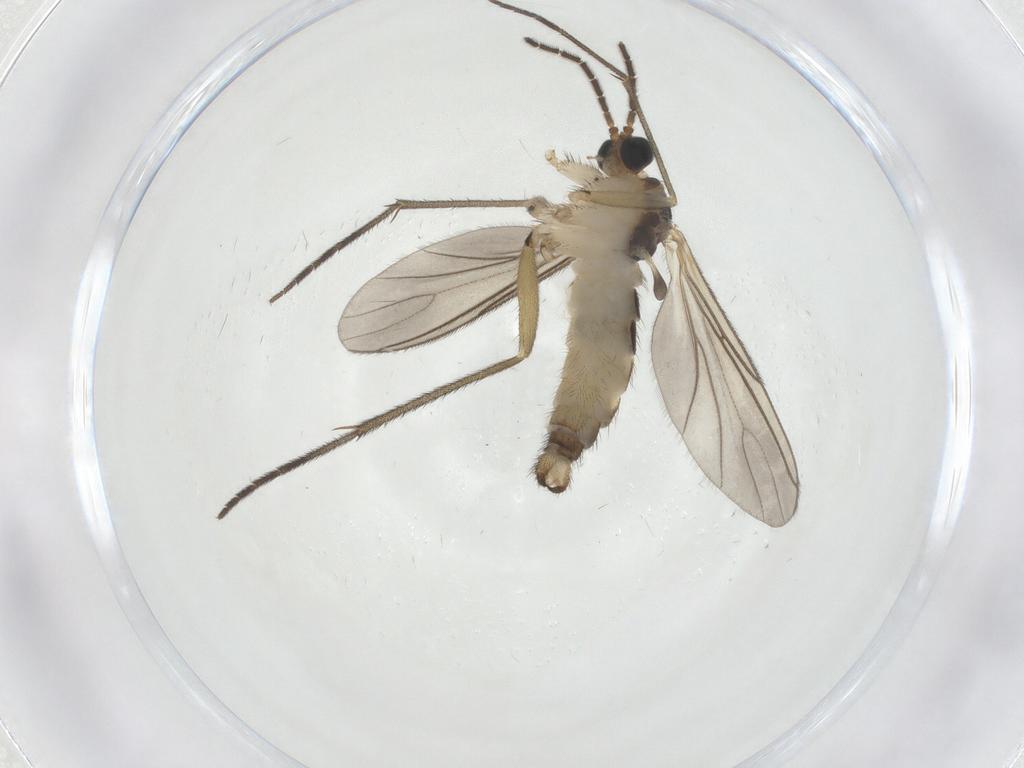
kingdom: Animalia
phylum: Arthropoda
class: Insecta
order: Diptera
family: Sciaridae
